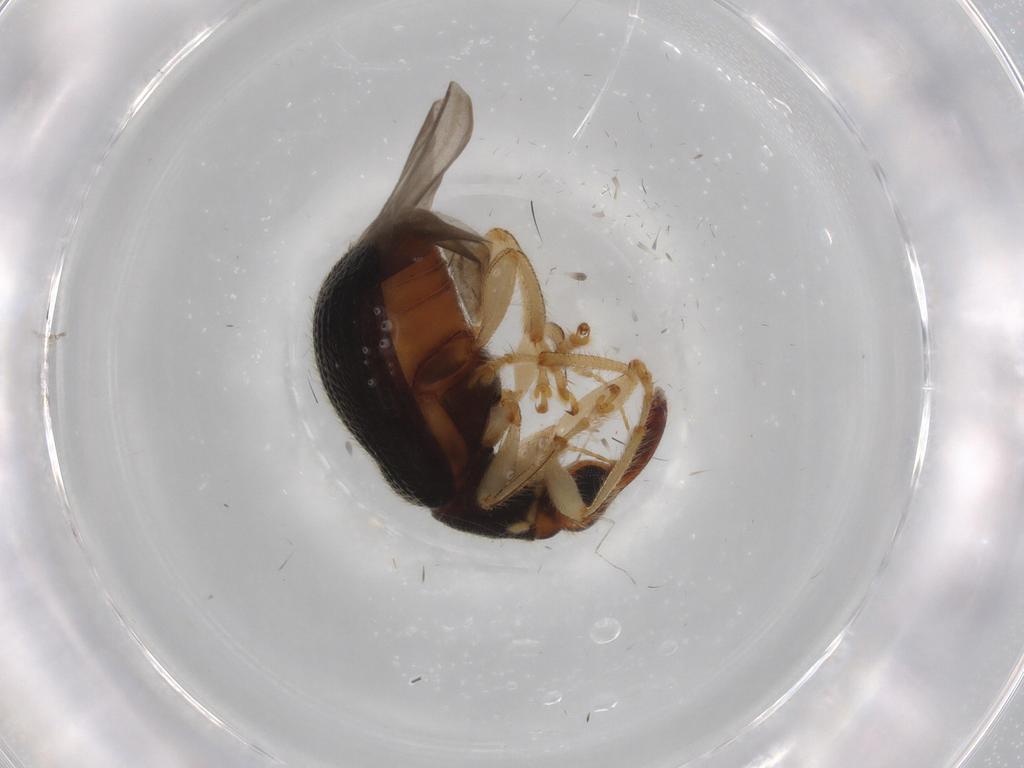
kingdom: Animalia
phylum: Arthropoda
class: Insecta
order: Coleoptera
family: Attelabidae
